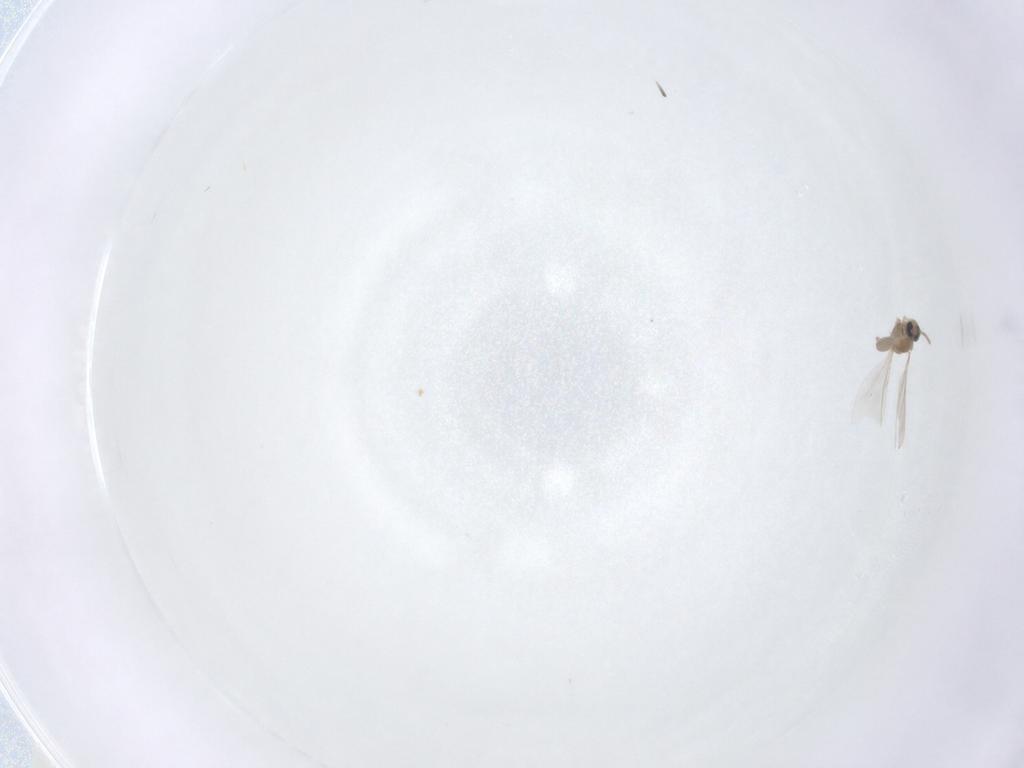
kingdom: Animalia
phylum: Arthropoda
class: Insecta
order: Diptera
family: Cecidomyiidae
